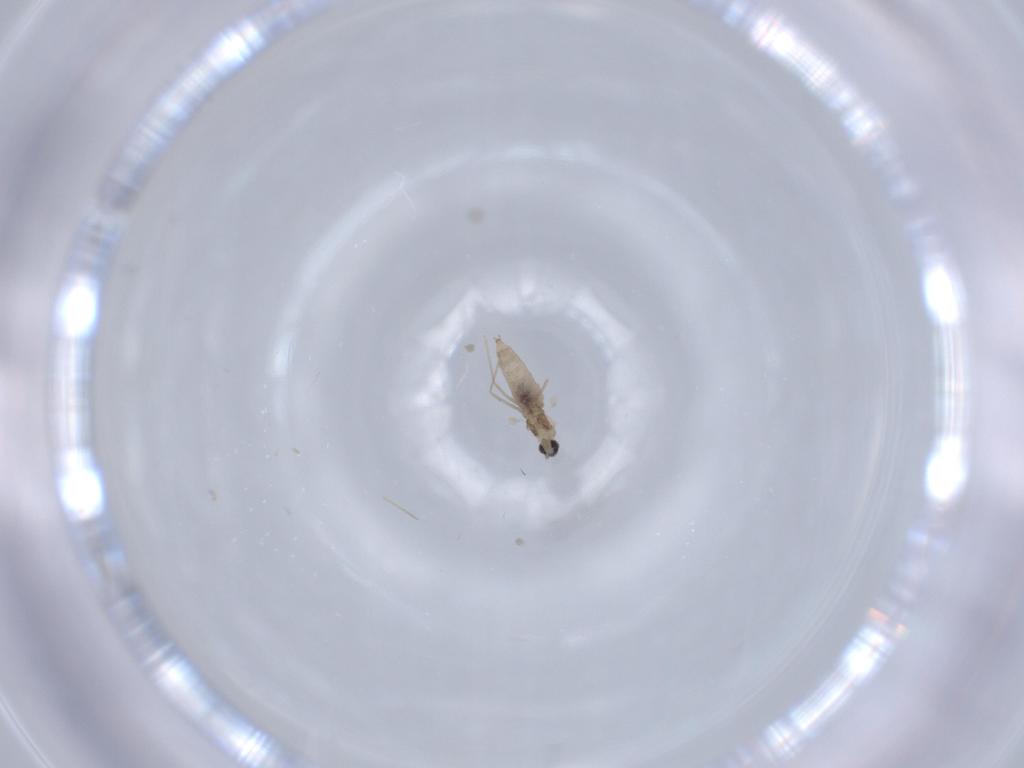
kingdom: Animalia
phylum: Arthropoda
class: Insecta
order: Diptera
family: Cecidomyiidae
